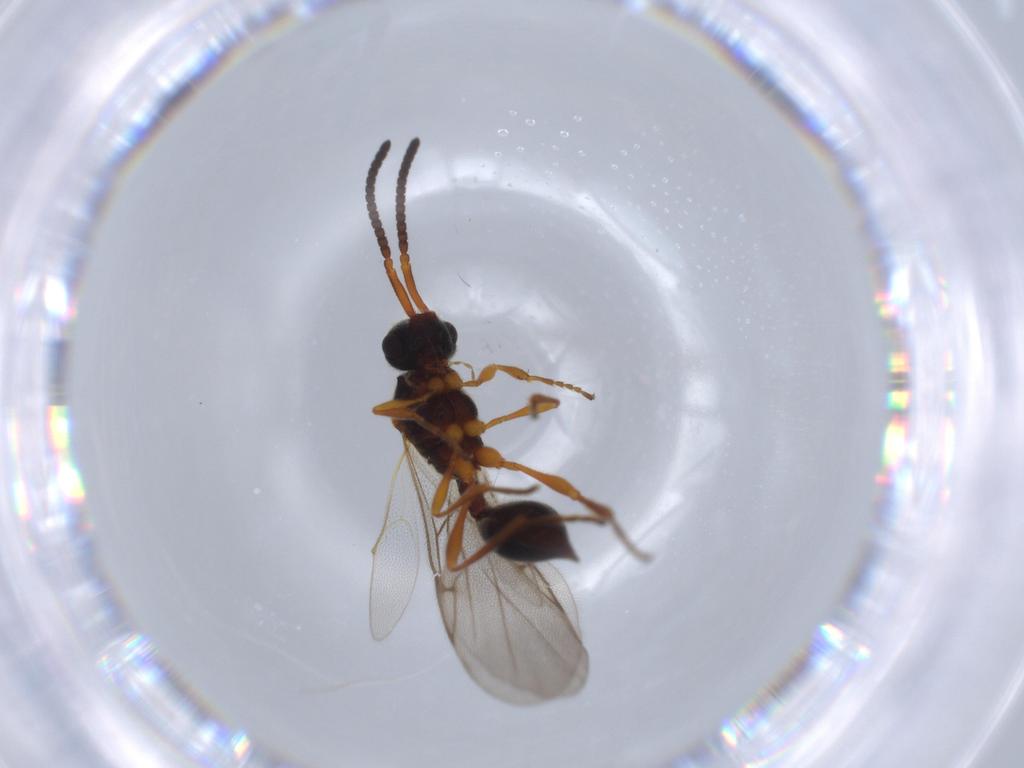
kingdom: Animalia
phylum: Arthropoda
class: Insecta
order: Hymenoptera
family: Diapriidae
